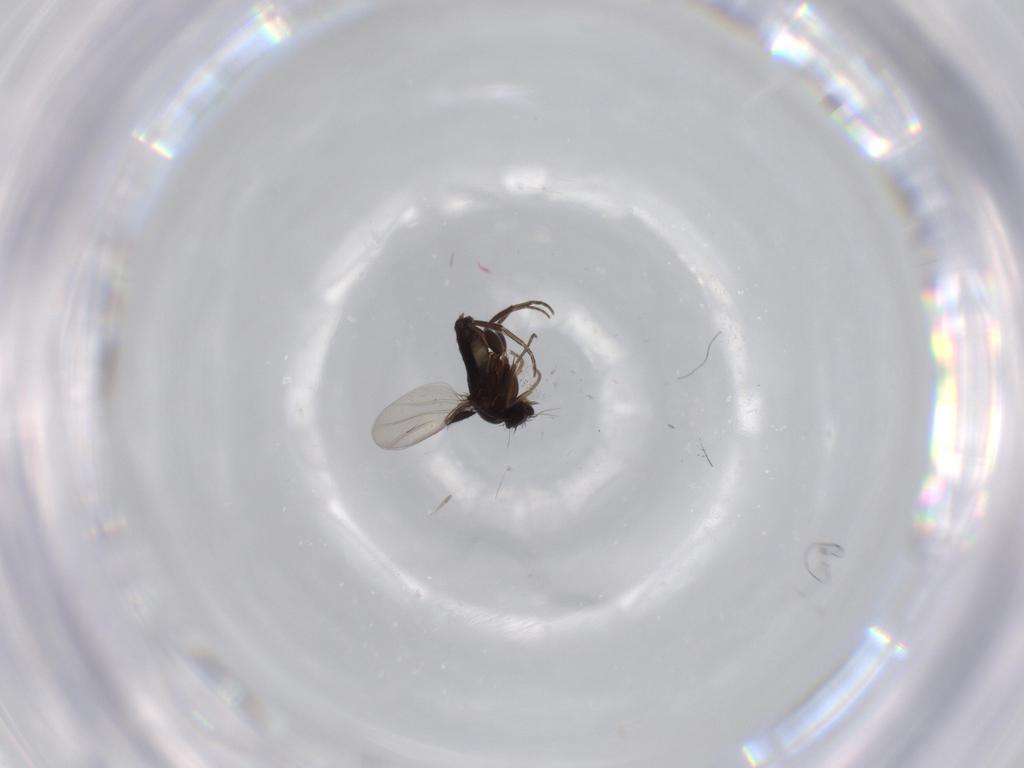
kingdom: Animalia
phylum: Arthropoda
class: Insecta
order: Diptera
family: Phoridae
